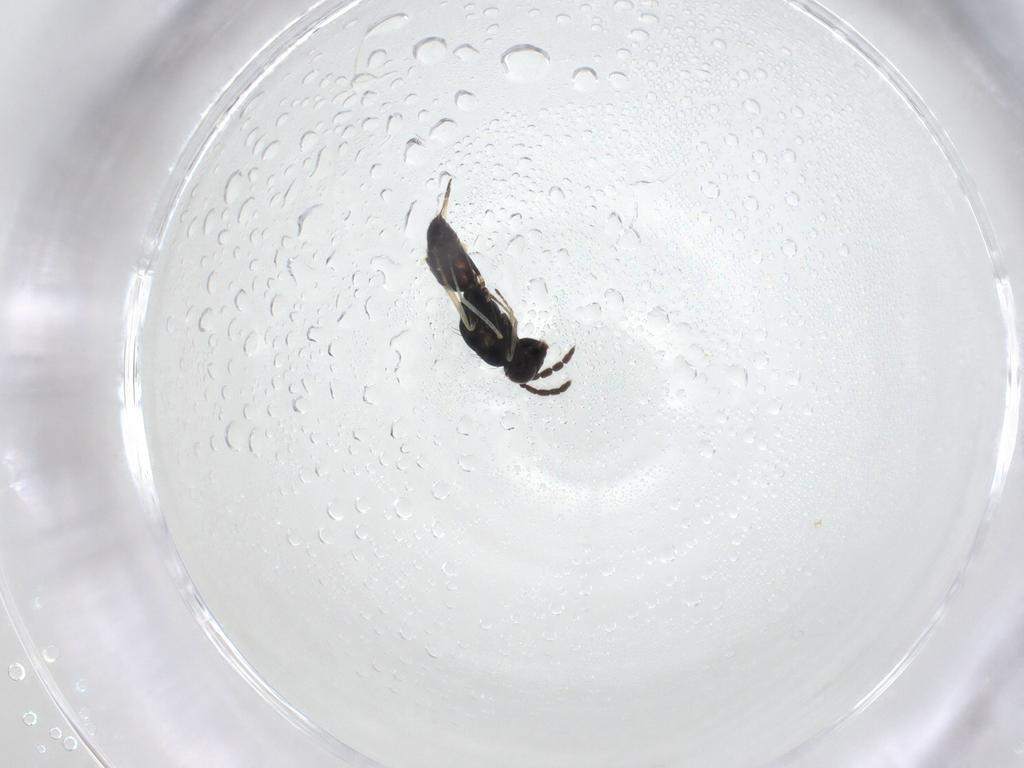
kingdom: Animalia
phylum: Arthropoda
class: Insecta
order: Hymenoptera
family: Eulophidae
